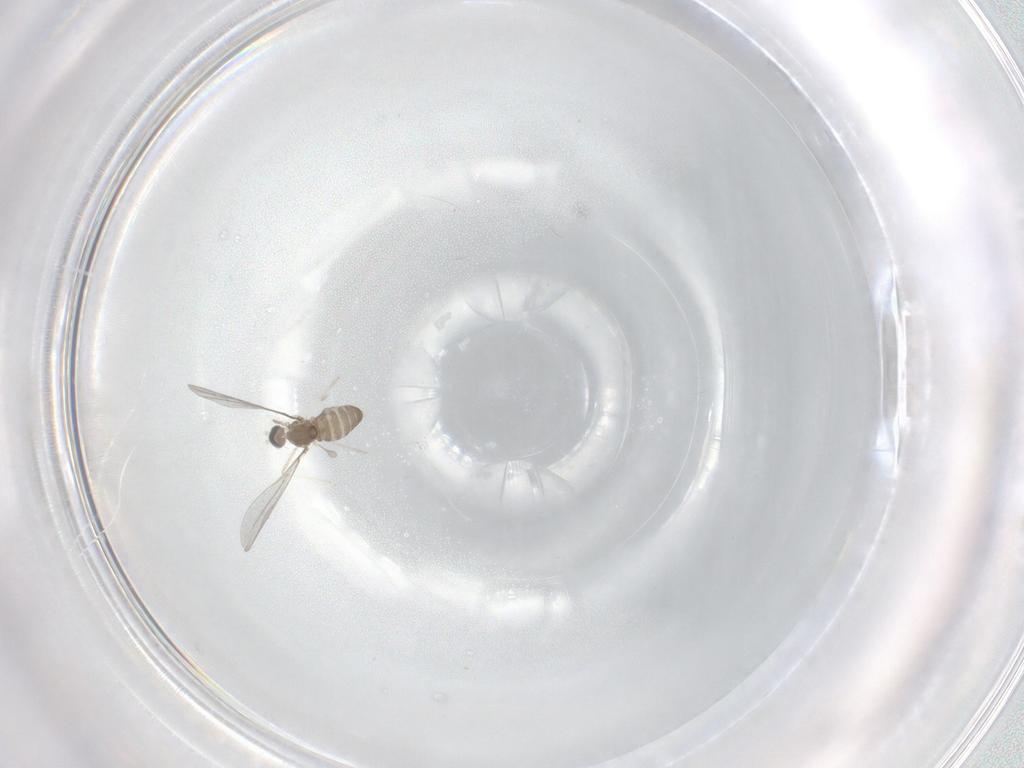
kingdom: Animalia
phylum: Arthropoda
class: Insecta
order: Diptera
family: Cecidomyiidae
